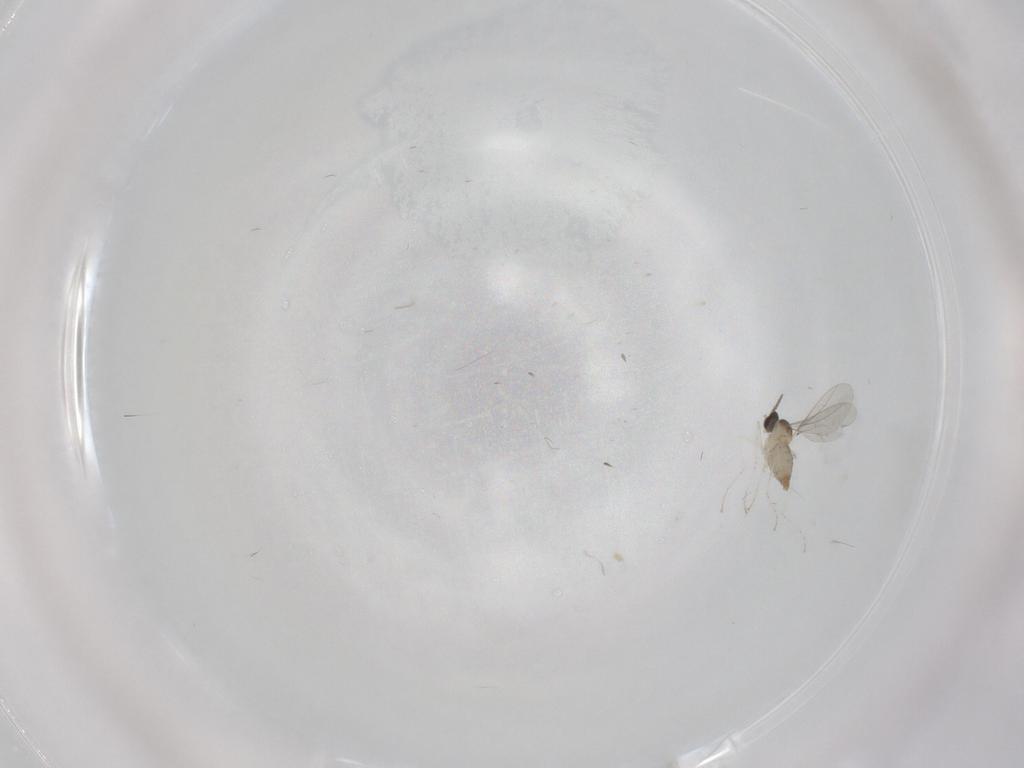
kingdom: Animalia
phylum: Arthropoda
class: Insecta
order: Diptera
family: Cecidomyiidae
